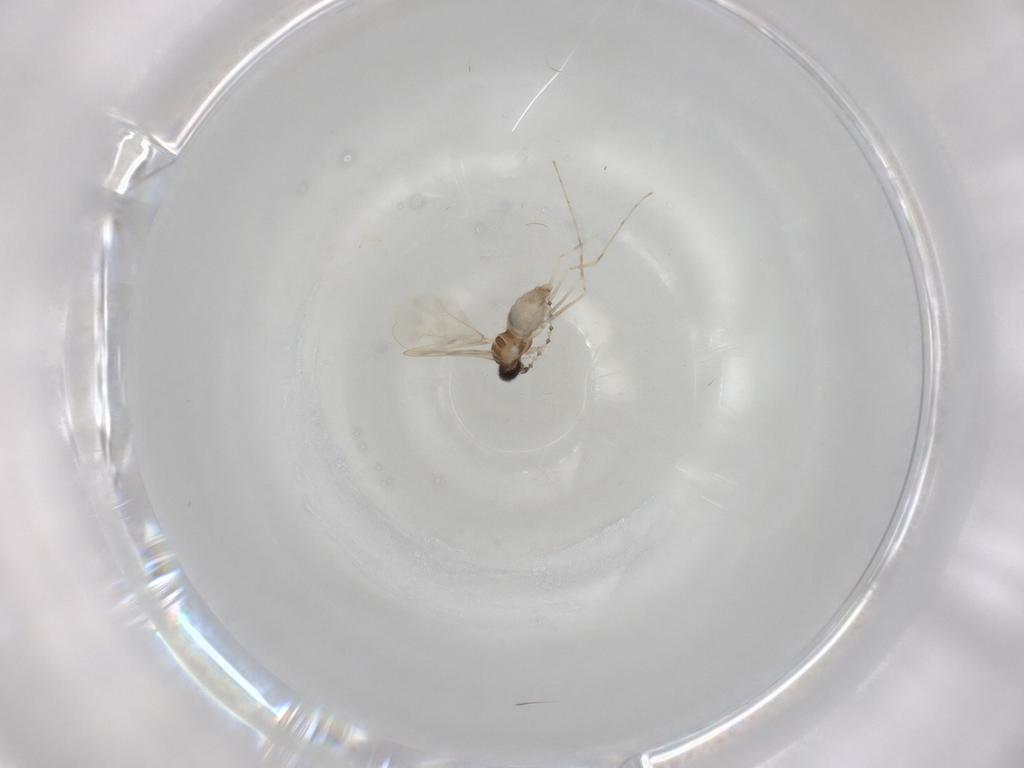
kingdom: Animalia
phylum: Arthropoda
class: Insecta
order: Diptera
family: Cecidomyiidae
